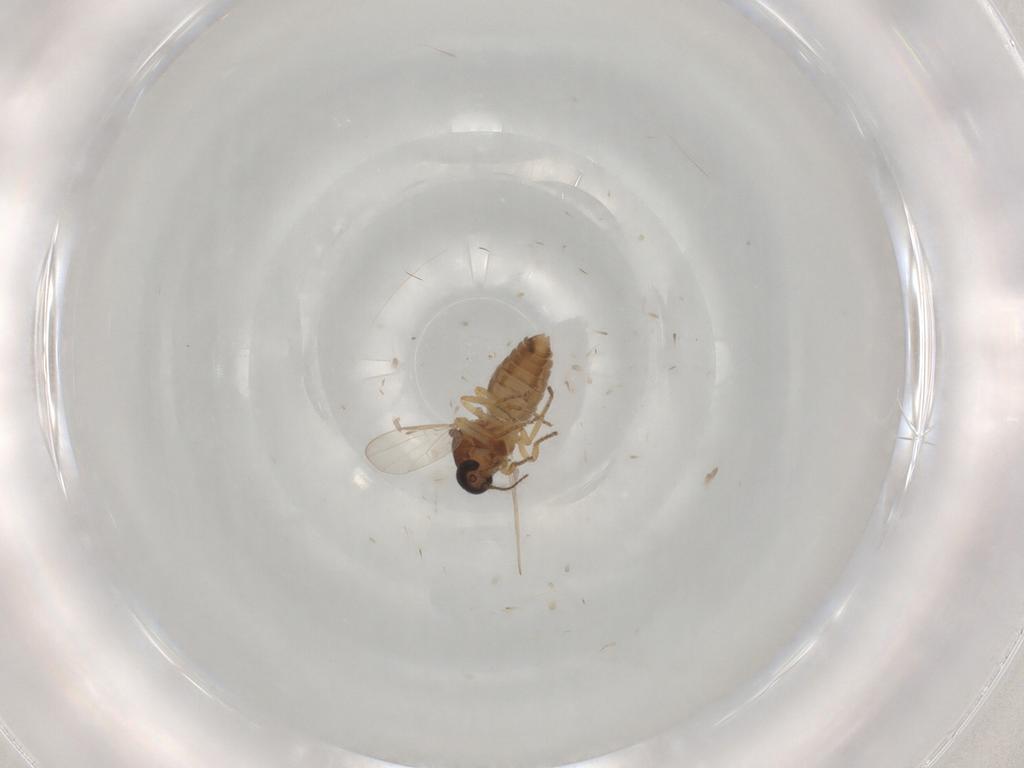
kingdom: Animalia
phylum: Arthropoda
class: Insecta
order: Diptera
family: Ceratopogonidae
